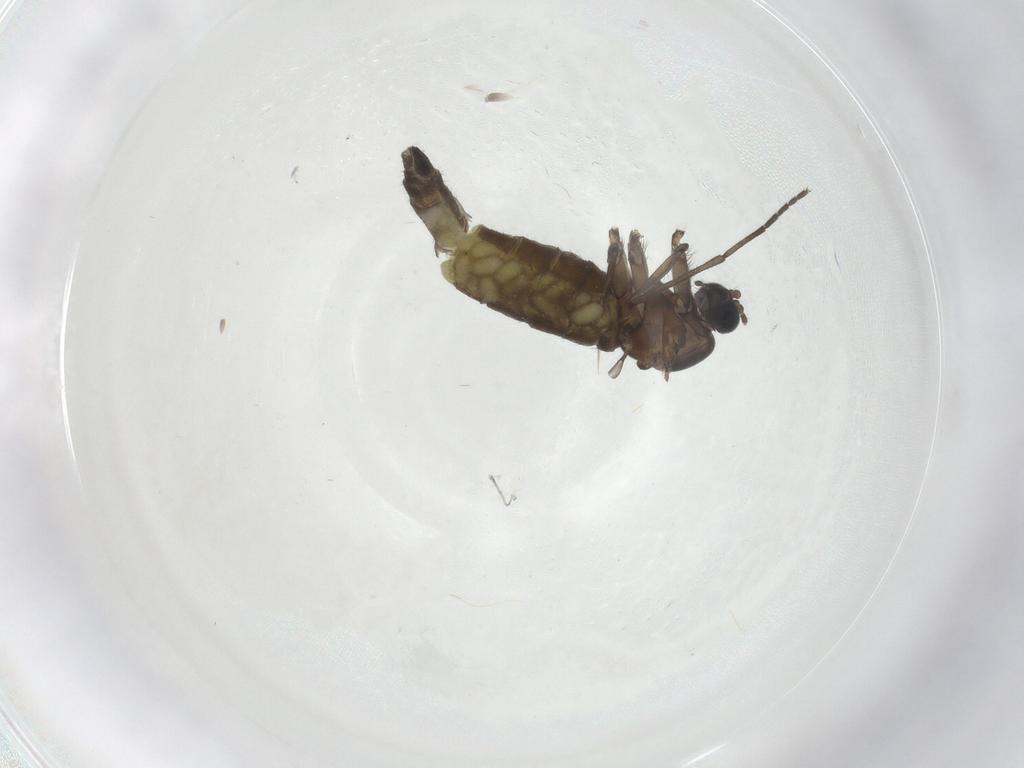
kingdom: Animalia
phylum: Arthropoda
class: Insecta
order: Diptera
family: Sciaridae
